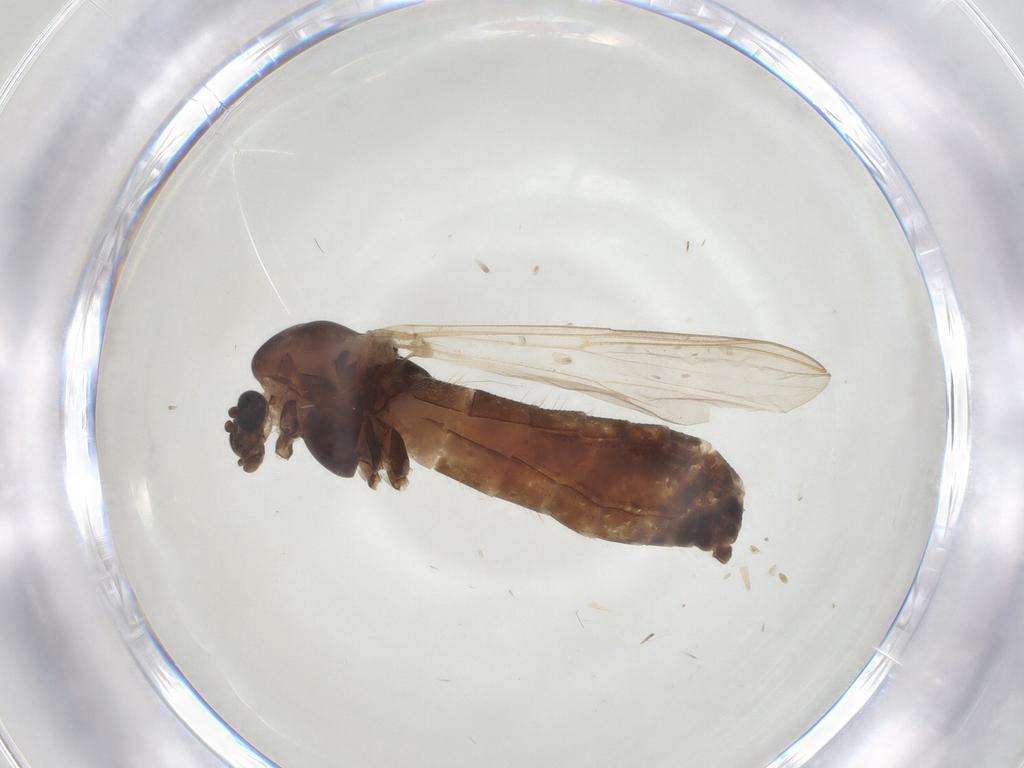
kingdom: Animalia
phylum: Arthropoda
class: Insecta
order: Diptera
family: Chironomidae
